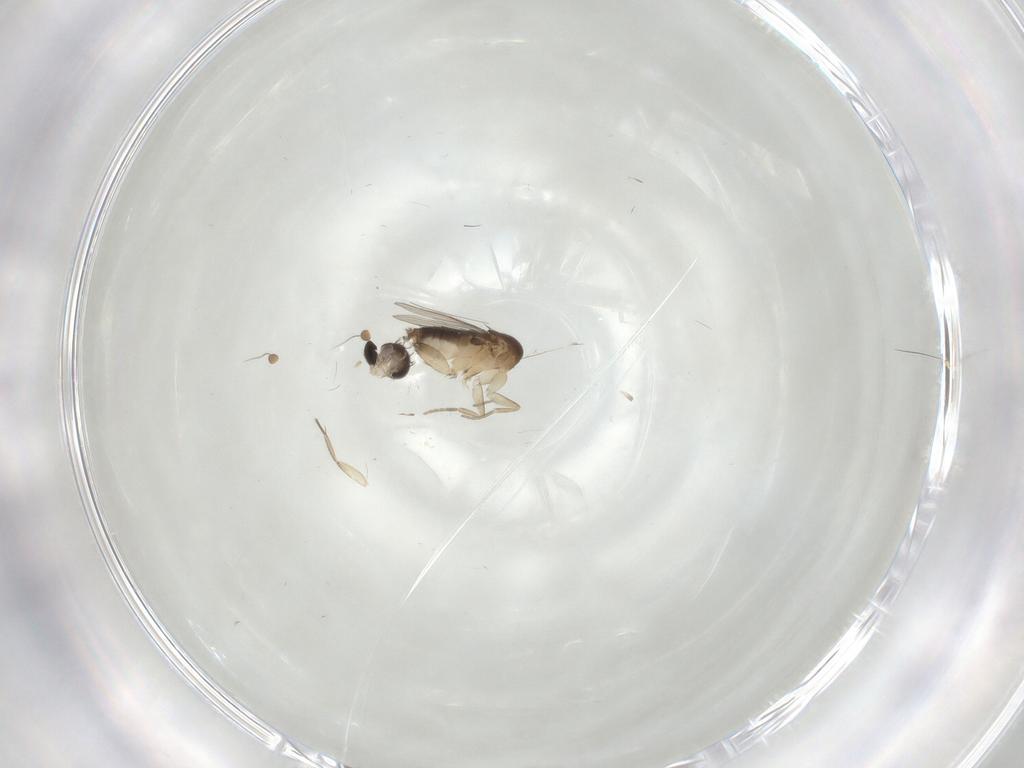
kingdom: Animalia
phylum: Arthropoda
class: Insecta
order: Diptera
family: Phoridae
